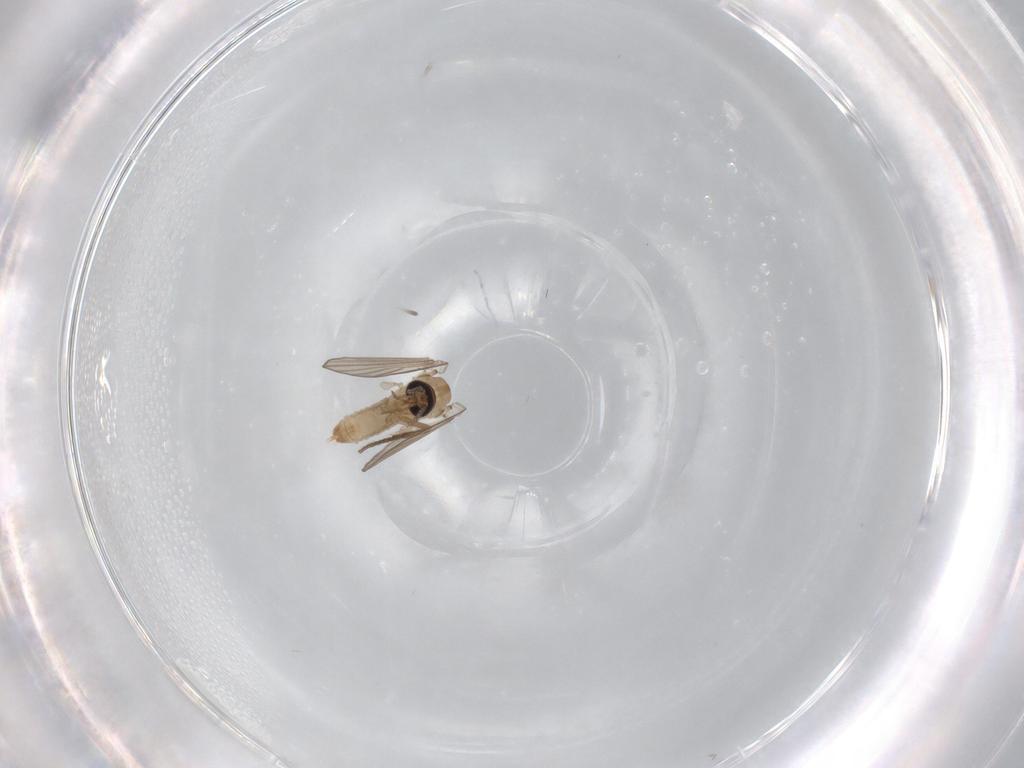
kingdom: Animalia
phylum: Arthropoda
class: Insecta
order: Diptera
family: Psychodidae
